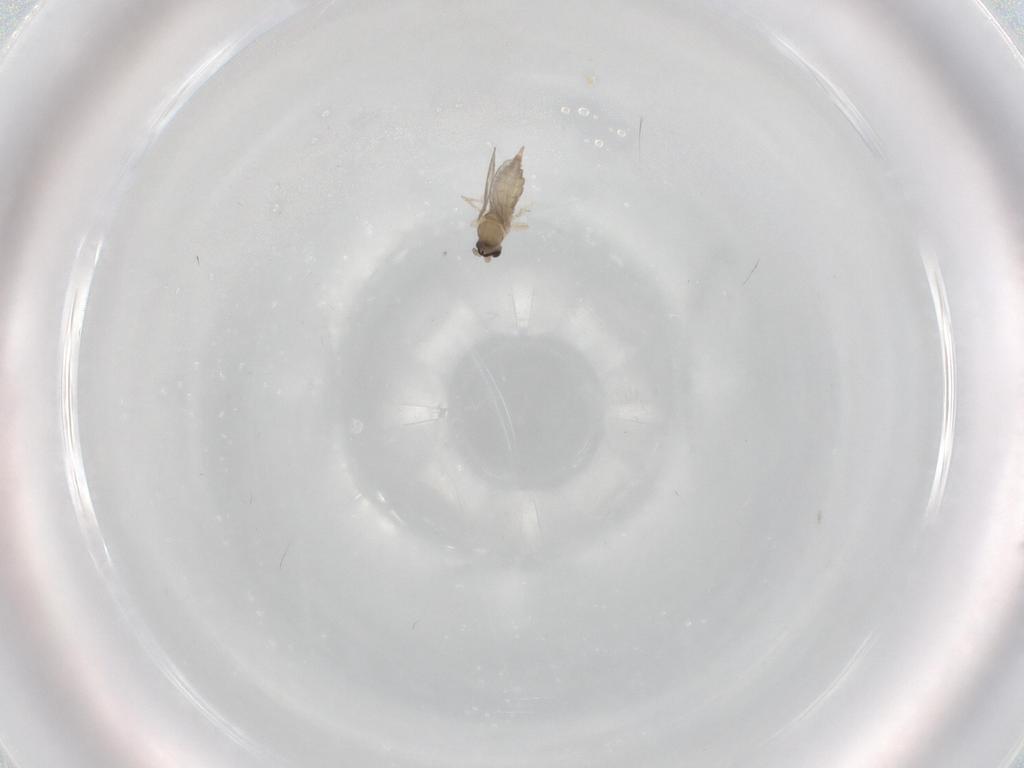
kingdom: Animalia
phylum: Arthropoda
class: Insecta
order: Diptera
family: Cecidomyiidae
